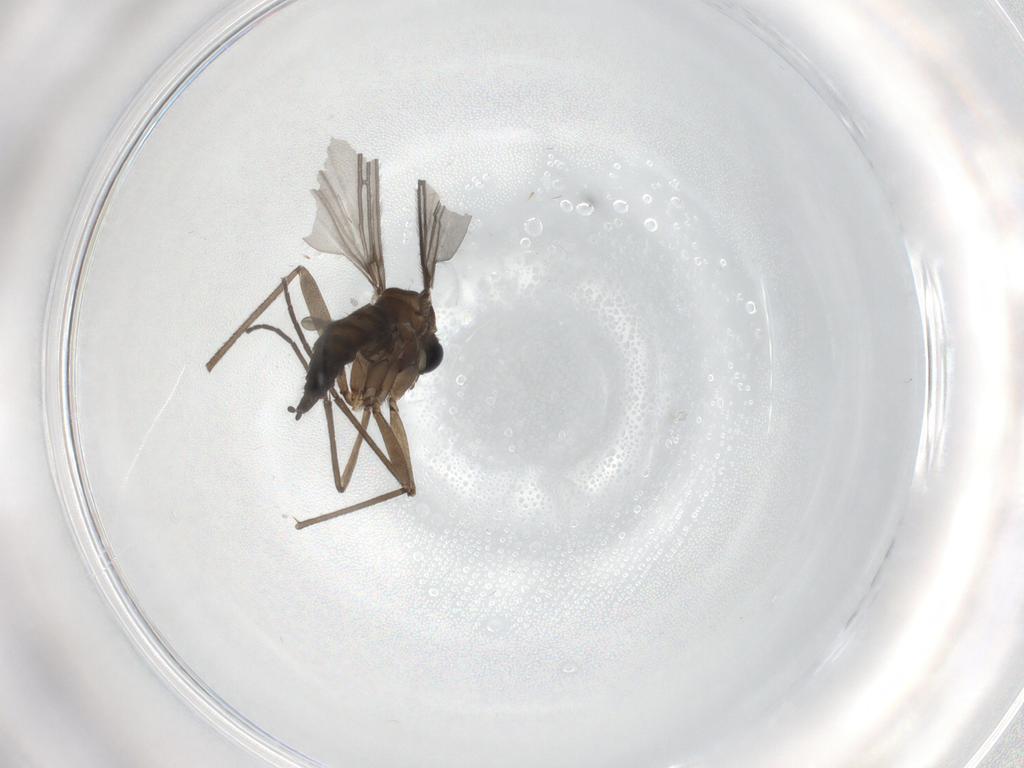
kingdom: Animalia
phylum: Arthropoda
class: Insecta
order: Diptera
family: Sciaridae
